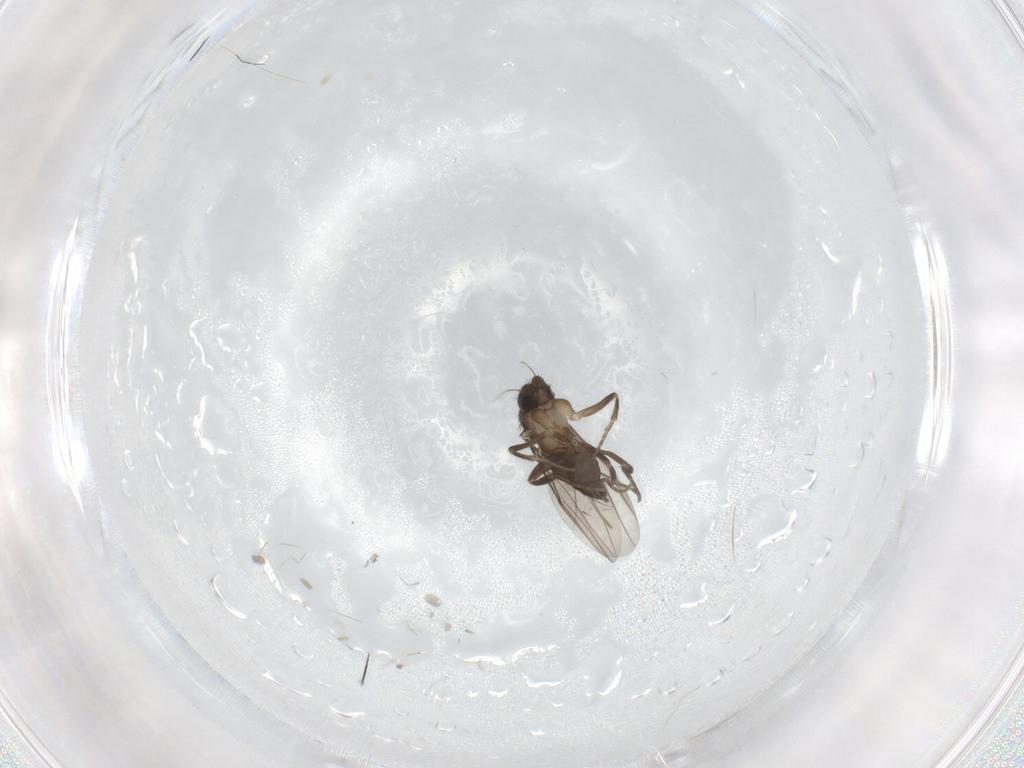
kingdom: Animalia
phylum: Arthropoda
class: Insecta
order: Diptera
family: Phoridae
